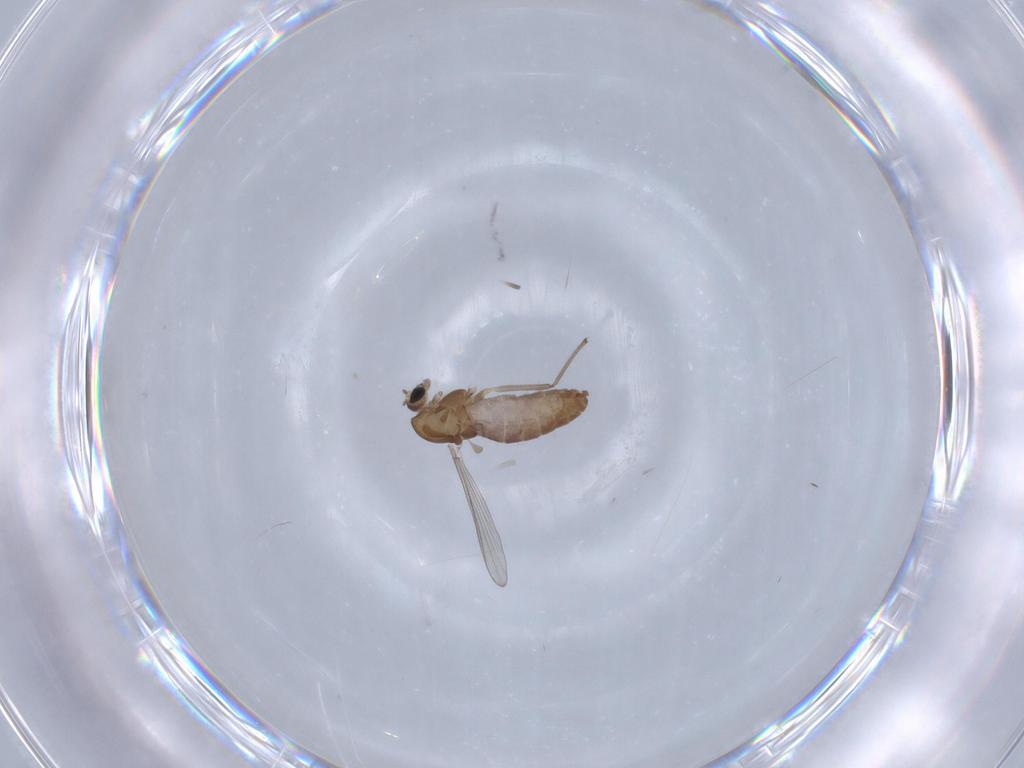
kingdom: Animalia
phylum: Arthropoda
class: Insecta
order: Diptera
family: Chironomidae
